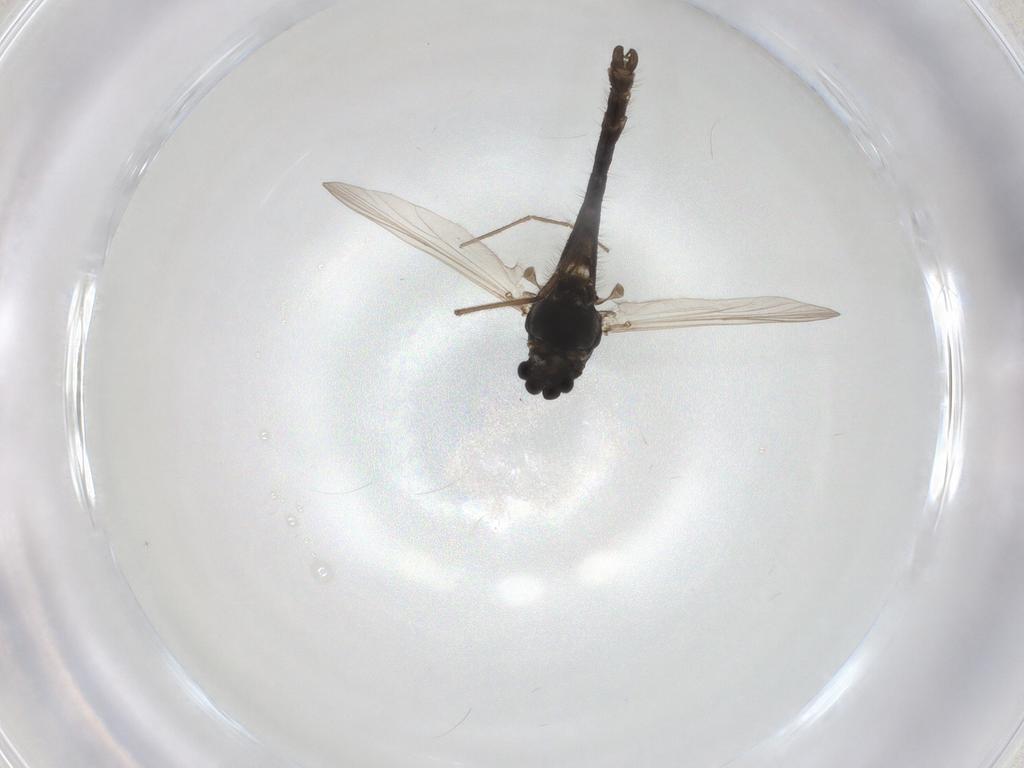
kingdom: Animalia
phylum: Arthropoda
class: Insecta
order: Diptera
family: Chironomidae
